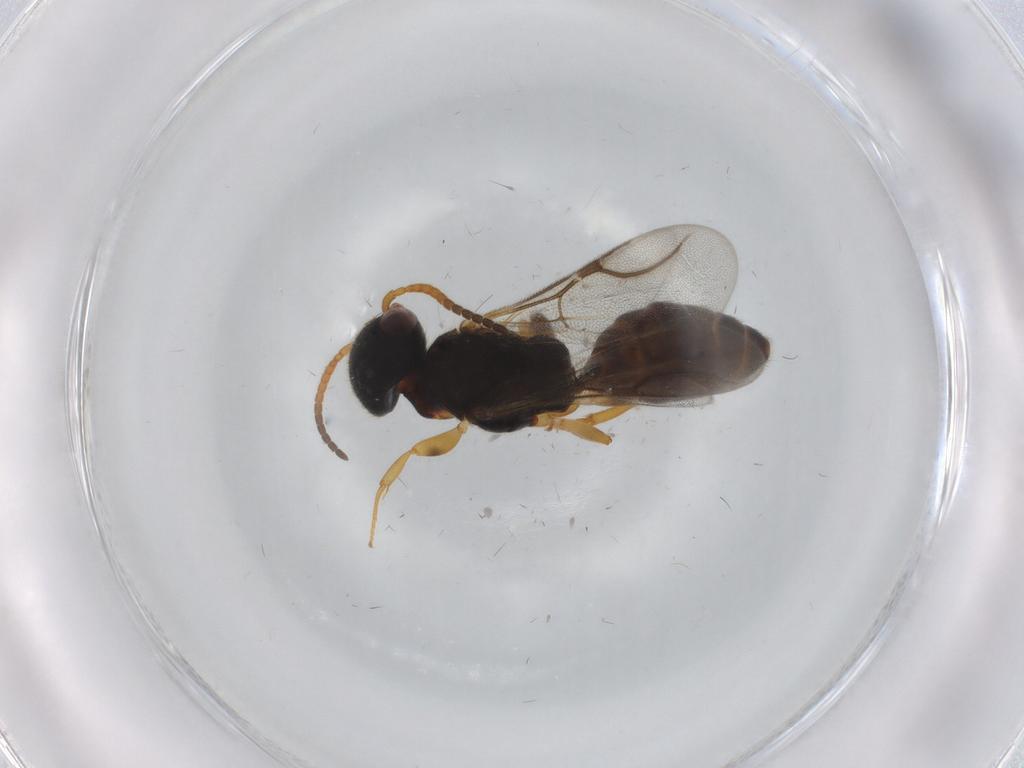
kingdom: Animalia
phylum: Arthropoda
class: Insecta
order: Hymenoptera
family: Bethylidae
